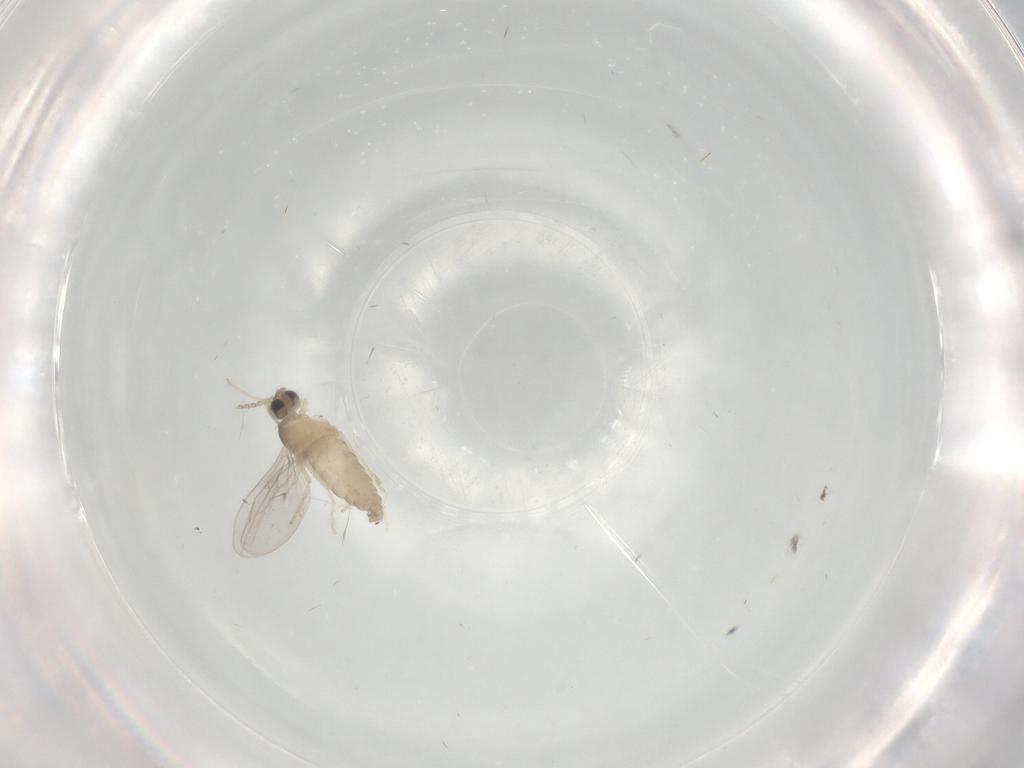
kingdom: Animalia
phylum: Arthropoda
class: Insecta
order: Diptera
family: Cecidomyiidae
